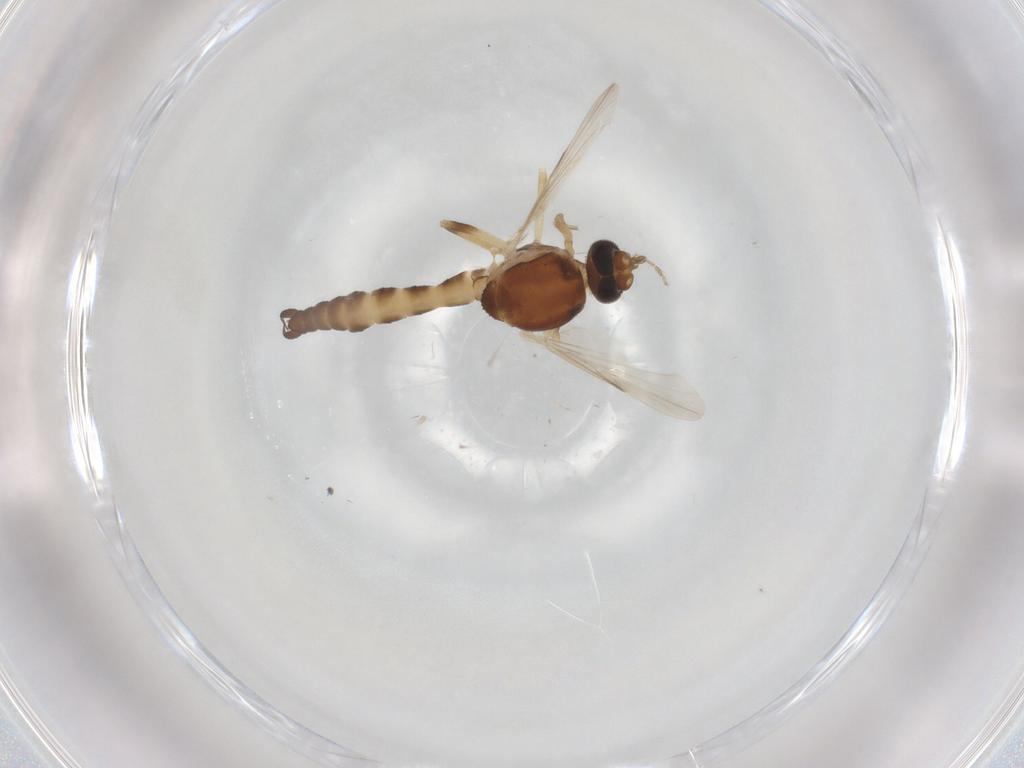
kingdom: Animalia
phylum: Arthropoda
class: Insecta
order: Diptera
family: Ceratopogonidae
